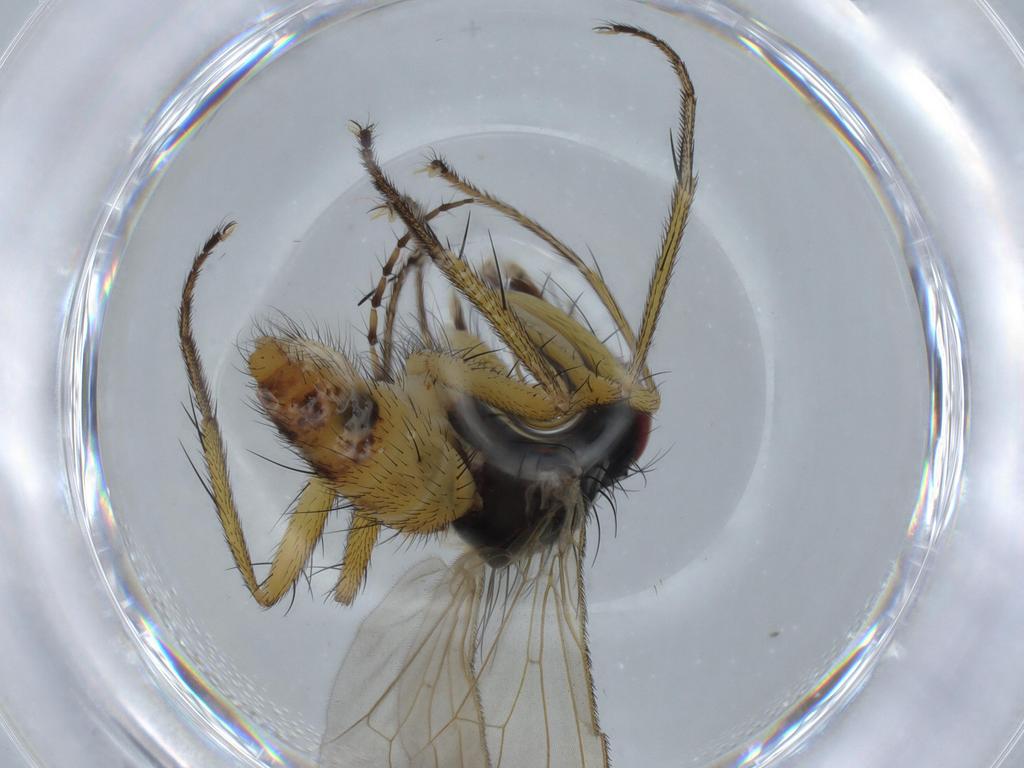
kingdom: Animalia
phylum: Arthropoda
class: Insecta
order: Diptera
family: Muscidae
